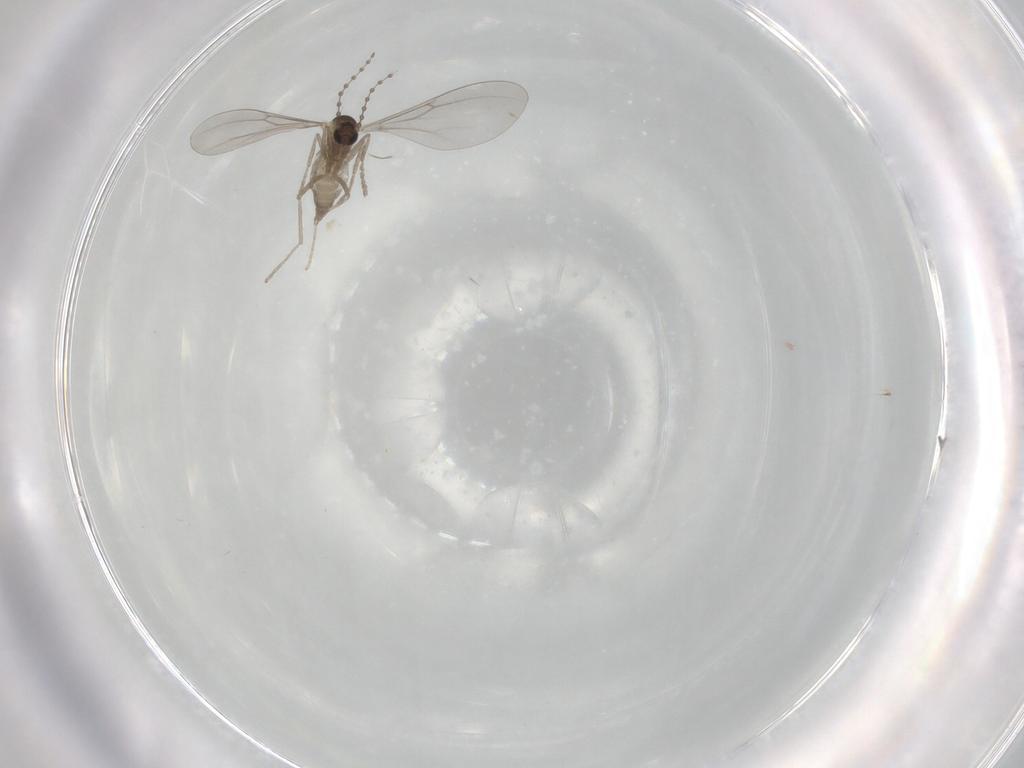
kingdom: Animalia
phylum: Arthropoda
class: Insecta
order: Diptera
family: Cecidomyiidae
